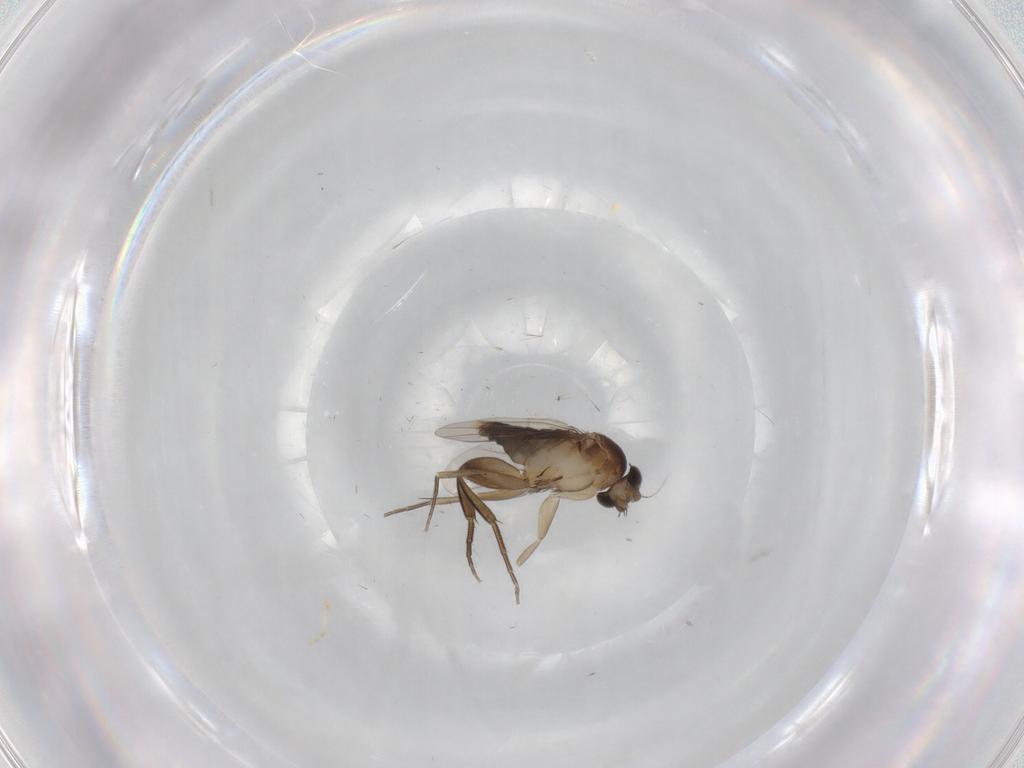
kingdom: Animalia
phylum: Arthropoda
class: Insecta
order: Diptera
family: Phoridae
